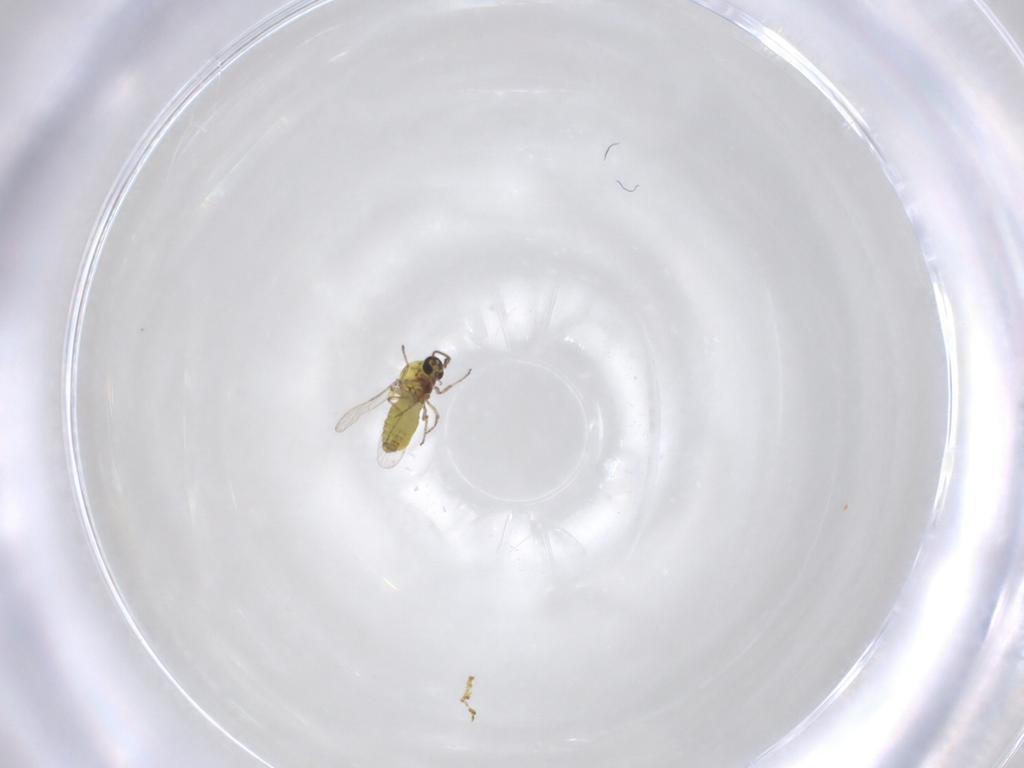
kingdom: Animalia
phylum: Arthropoda
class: Insecta
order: Diptera
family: Ceratopogonidae
